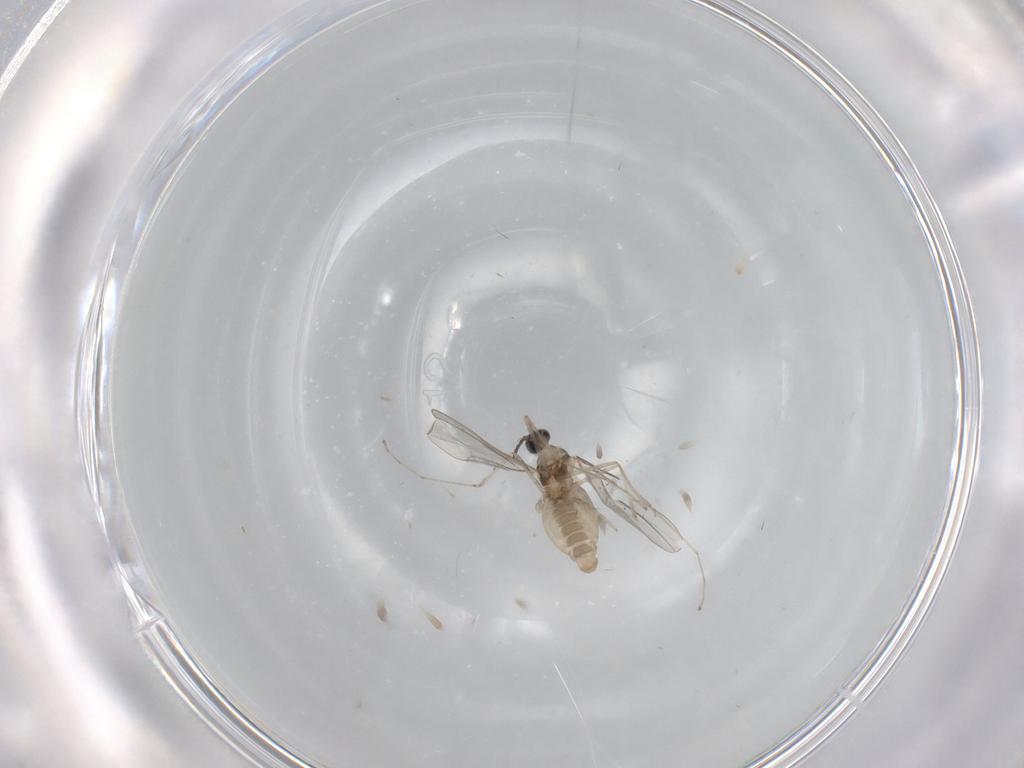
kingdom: Animalia
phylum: Arthropoda
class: Insecta
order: Diptera
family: Cecidomyiidae
